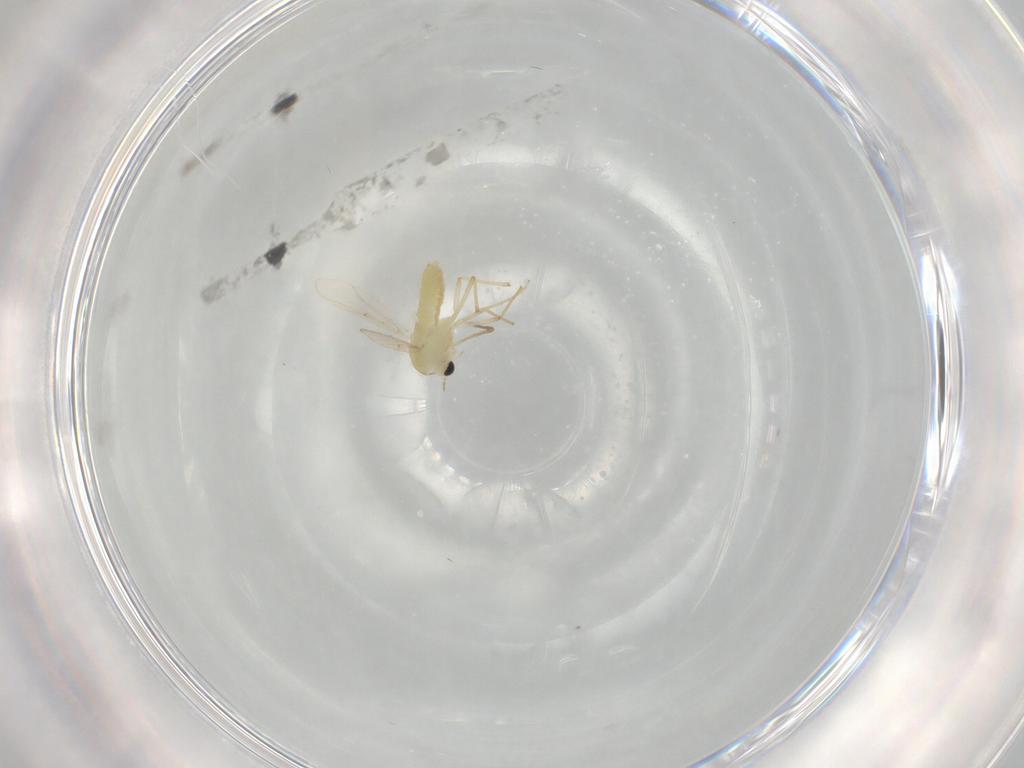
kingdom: Animalia
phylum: Arthropoda
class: Insecta
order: Diptera
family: Chironomidae
